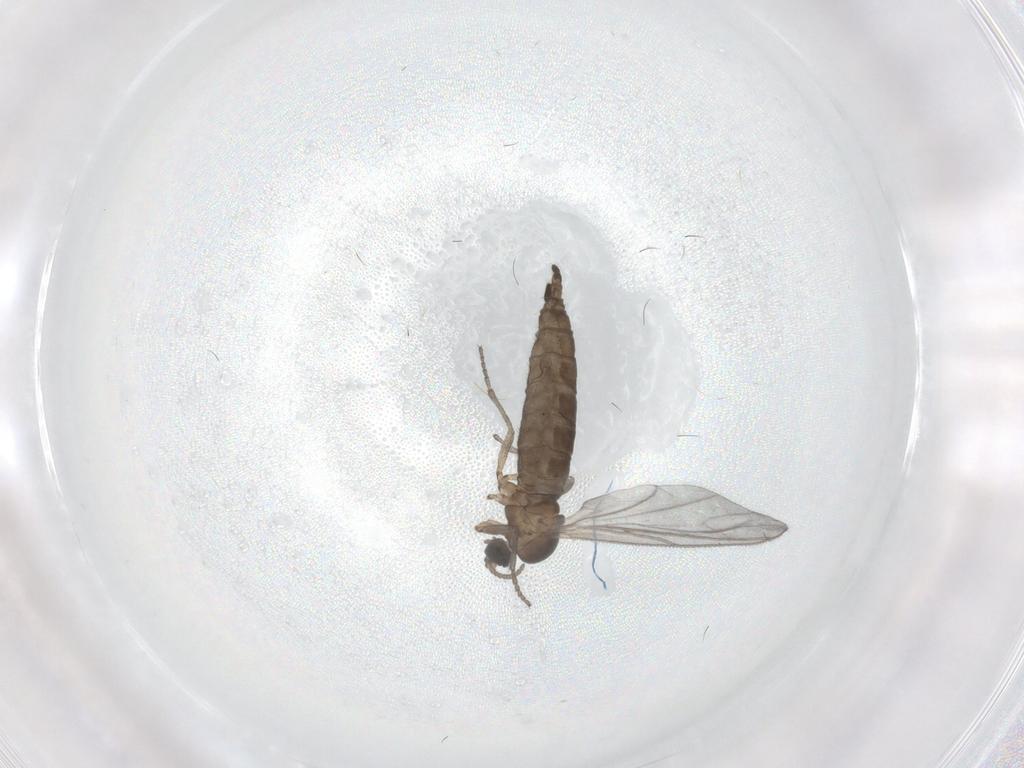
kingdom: Animalia
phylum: Arthropoda
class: Insecta
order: Diptera
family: Sciaridae
